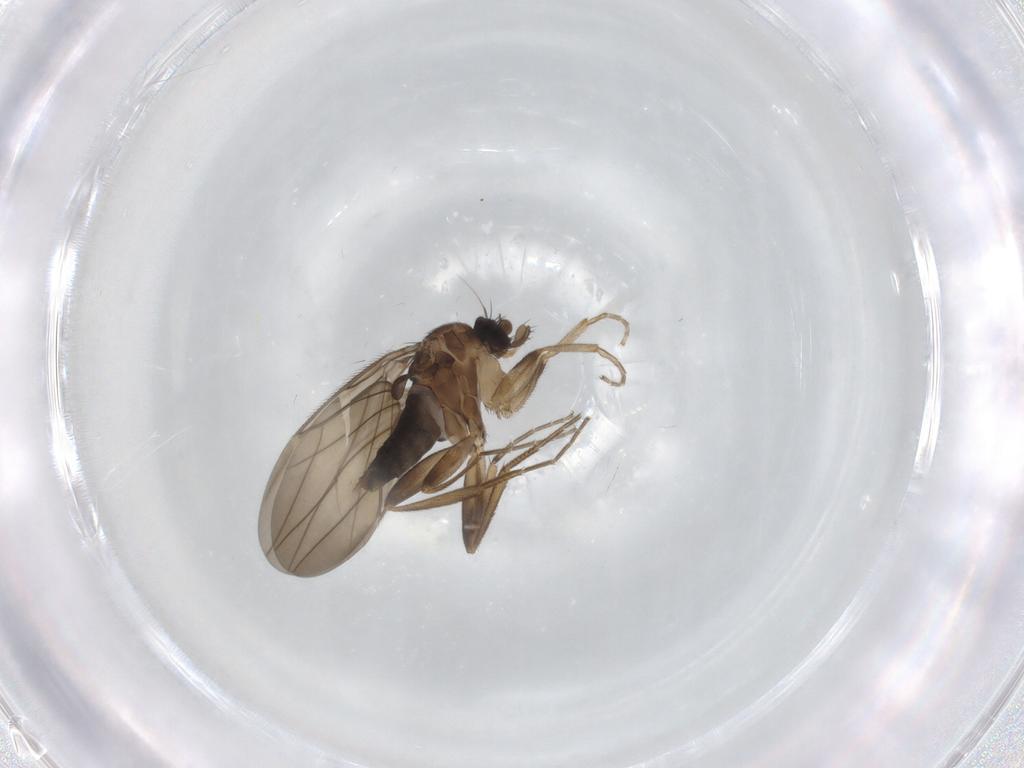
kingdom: Animalia
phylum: Arthropoda
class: Insecta
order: Diptera
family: Phoridae
